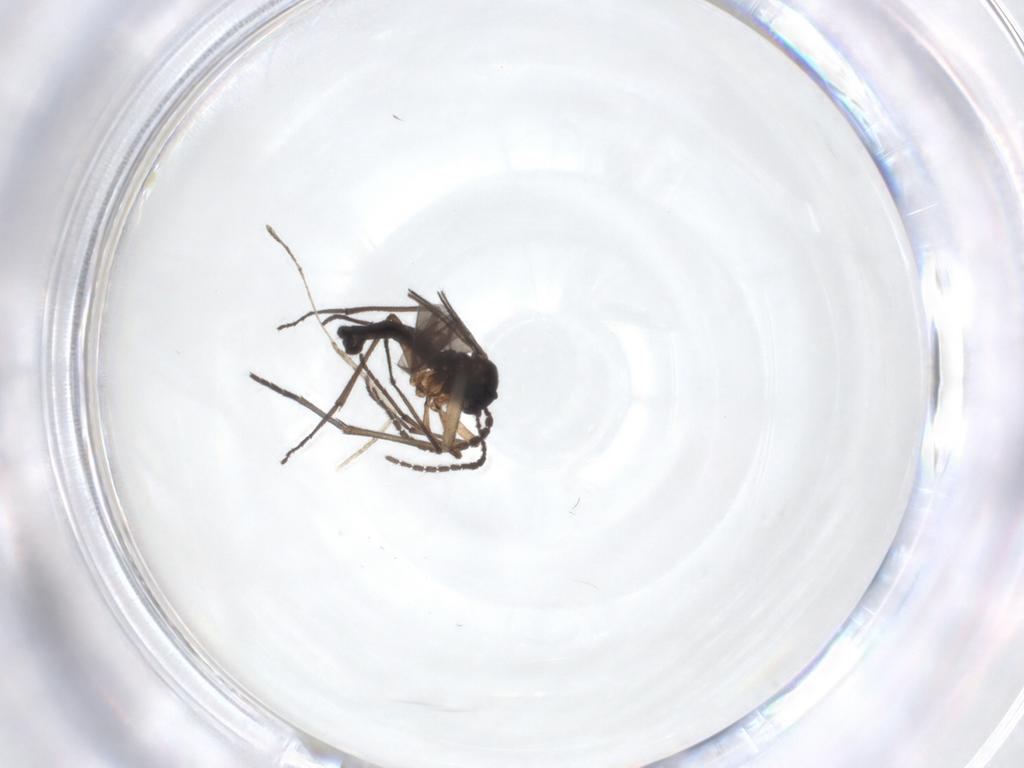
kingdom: Animalia
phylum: Arthropoda
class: Insecta
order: Diptera
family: Sciaridae
